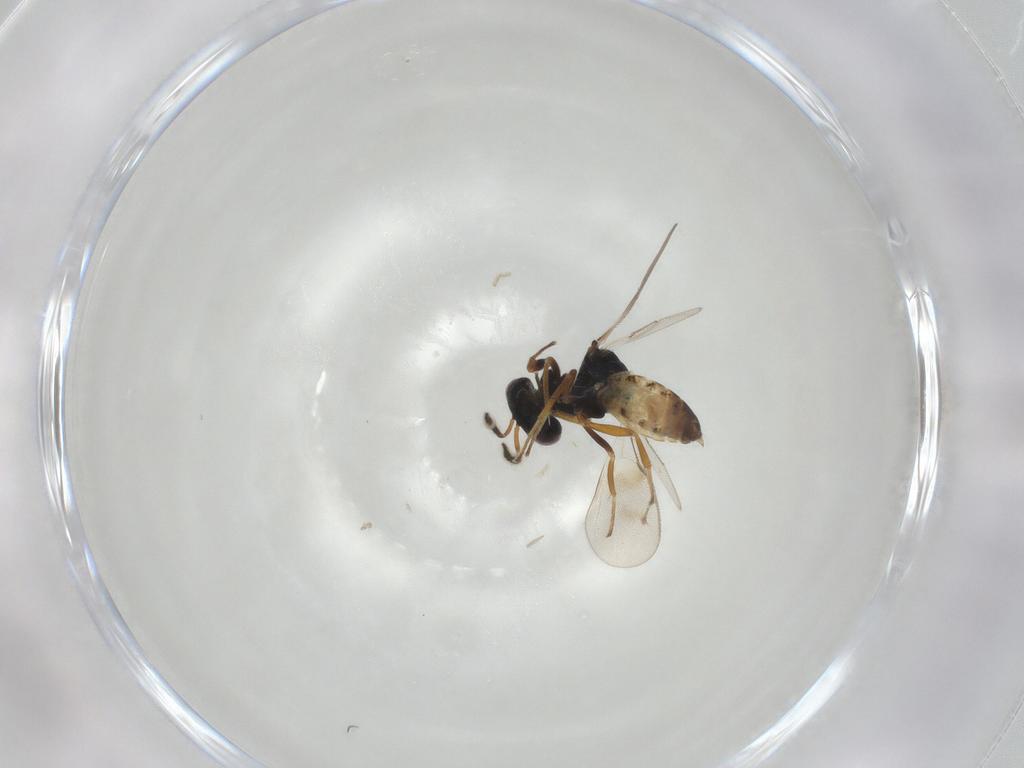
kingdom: Animalia
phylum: Arthropoda
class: Insecta
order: Hymenoptera
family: Pteromalidae
